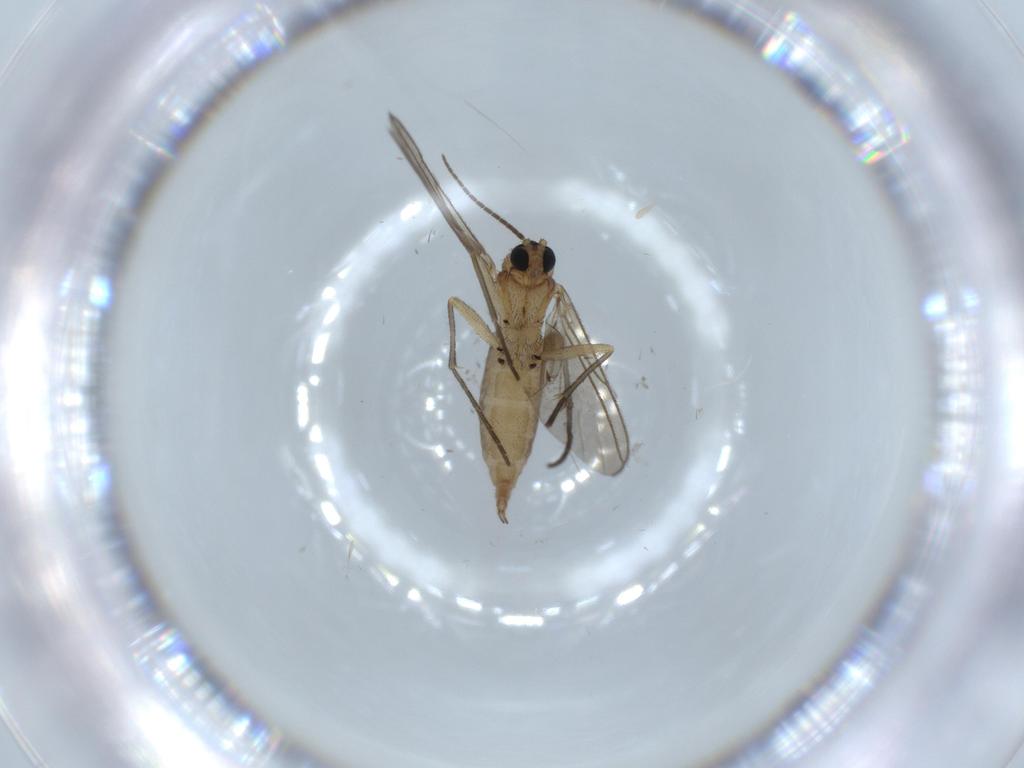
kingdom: Animalia
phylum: Arthropoda
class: Insecta
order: Diptera
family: Sciaridae
